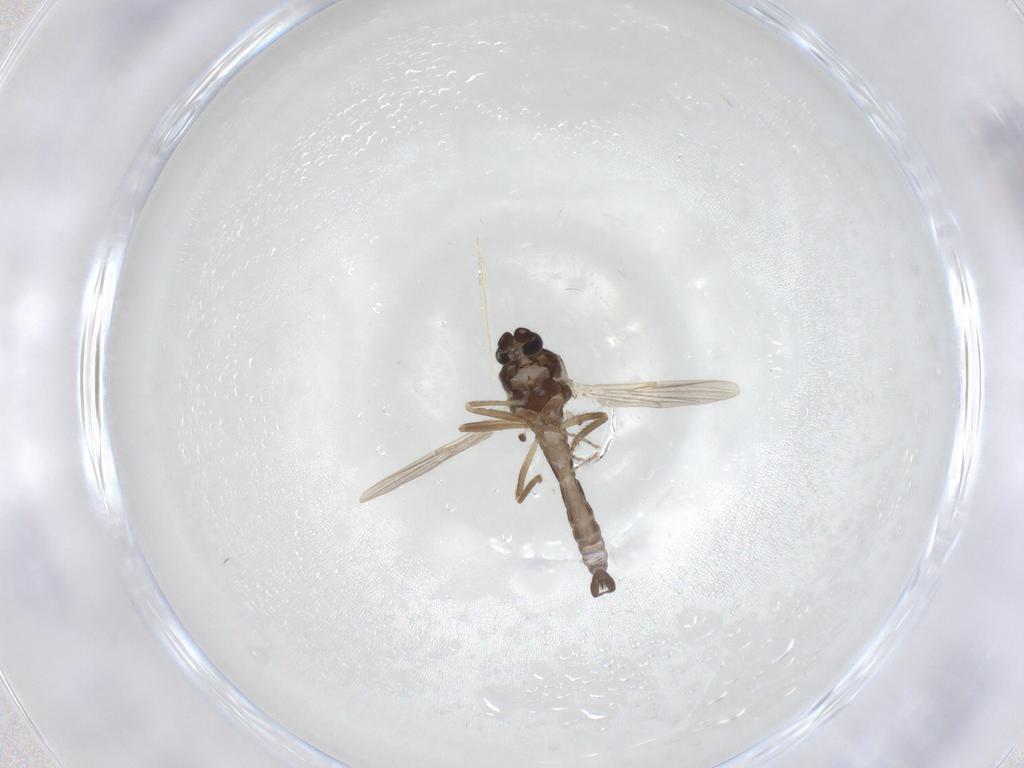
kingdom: Animalia
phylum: Arthropoda
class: Insecta
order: Diptera
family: Ceratopogonidae
